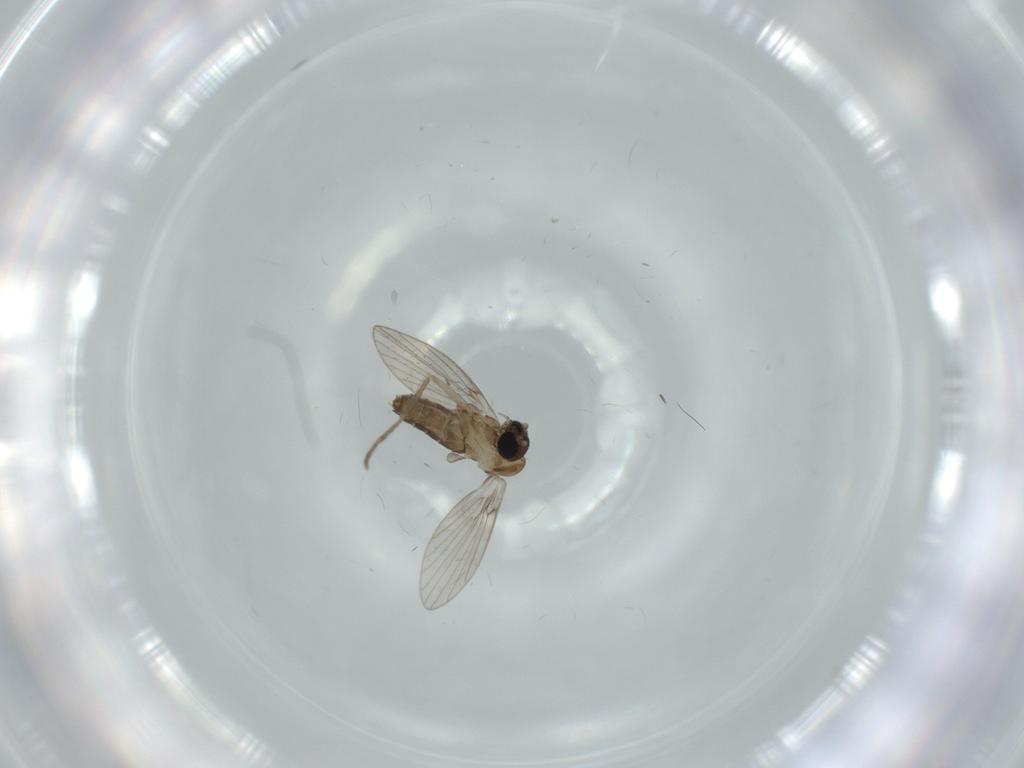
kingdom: Animalia
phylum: Arthropoda
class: Insecta
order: Diptera
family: Psychodidae
